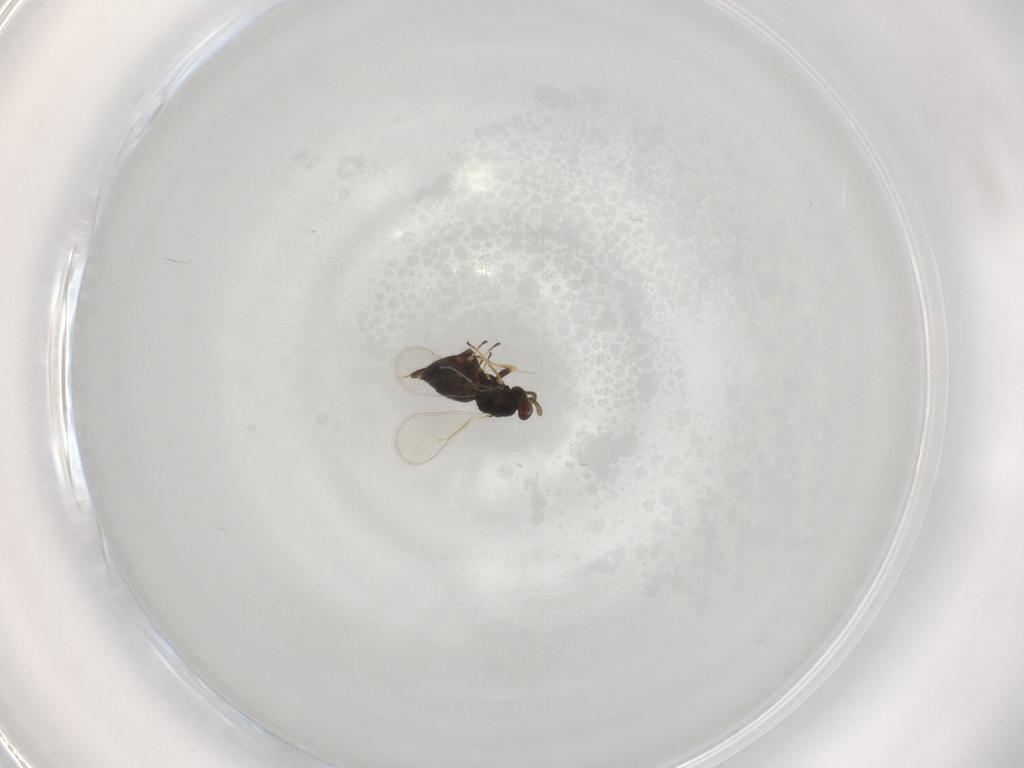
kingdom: Animalia
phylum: Arthropoda
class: Insecta
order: Hymenoptera
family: Eulophidae
